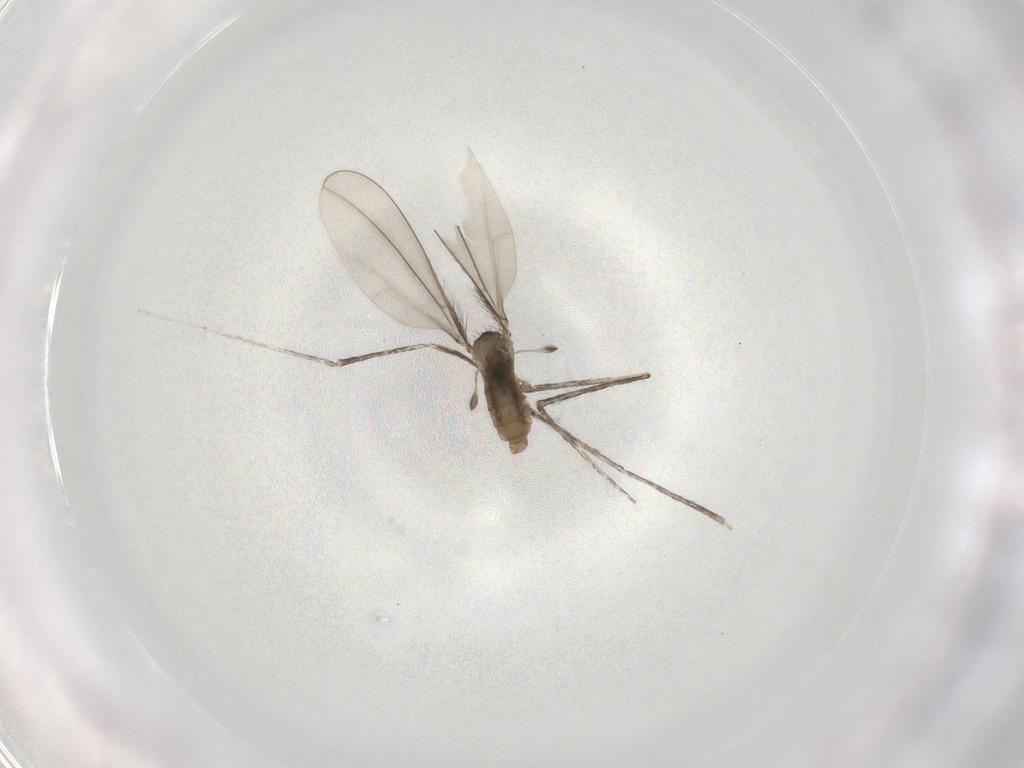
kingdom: Animalia
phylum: Arthropoda
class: Insecta
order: Diptera
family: Cecidomyiidae
